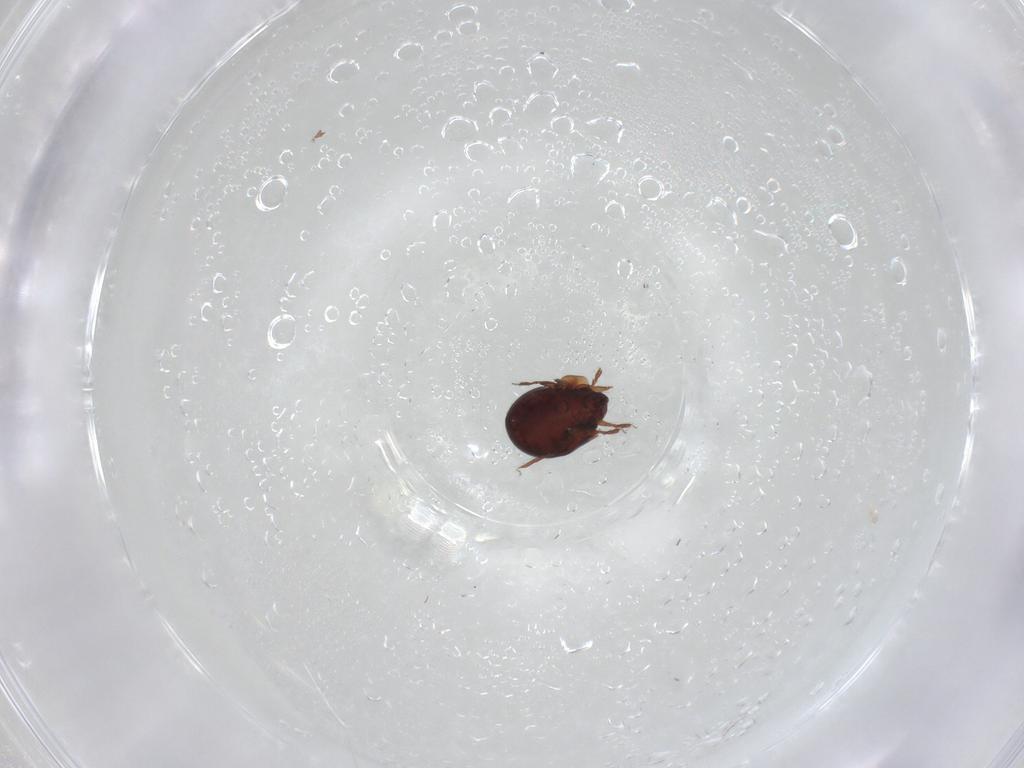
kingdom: Animalia
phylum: Arthropoda
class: Arachnida
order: Sarcoptiformes
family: Humerobatidae
